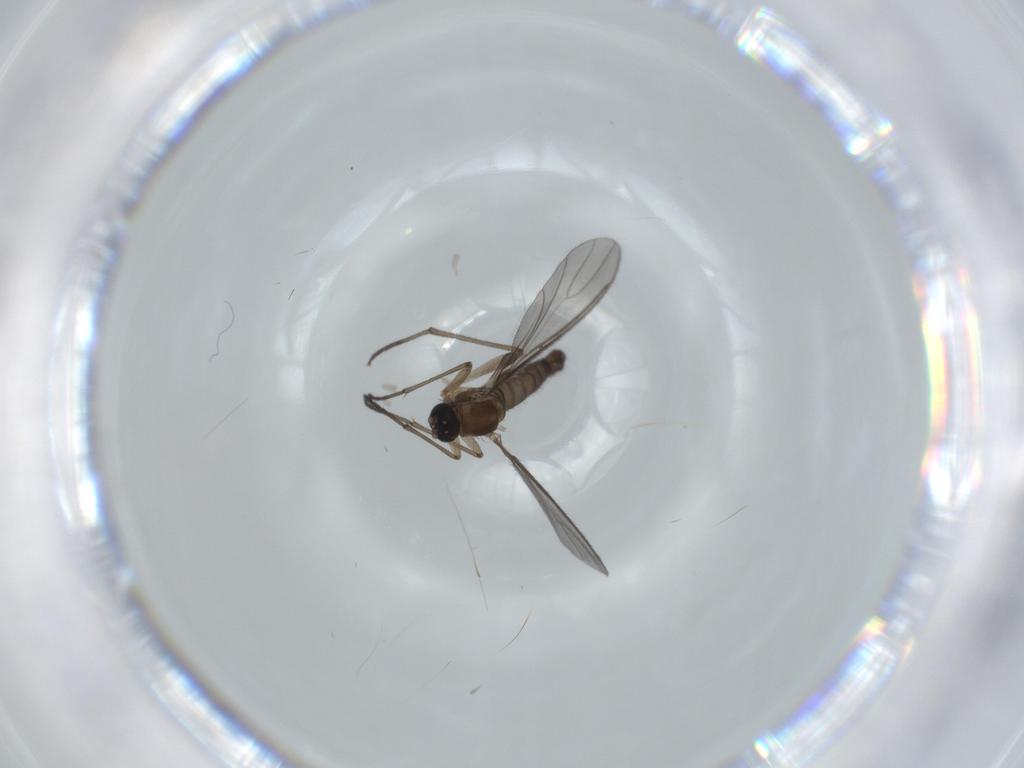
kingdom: Animalia
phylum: Arthropoda
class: Insecta
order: Diptera
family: Sciaridae
